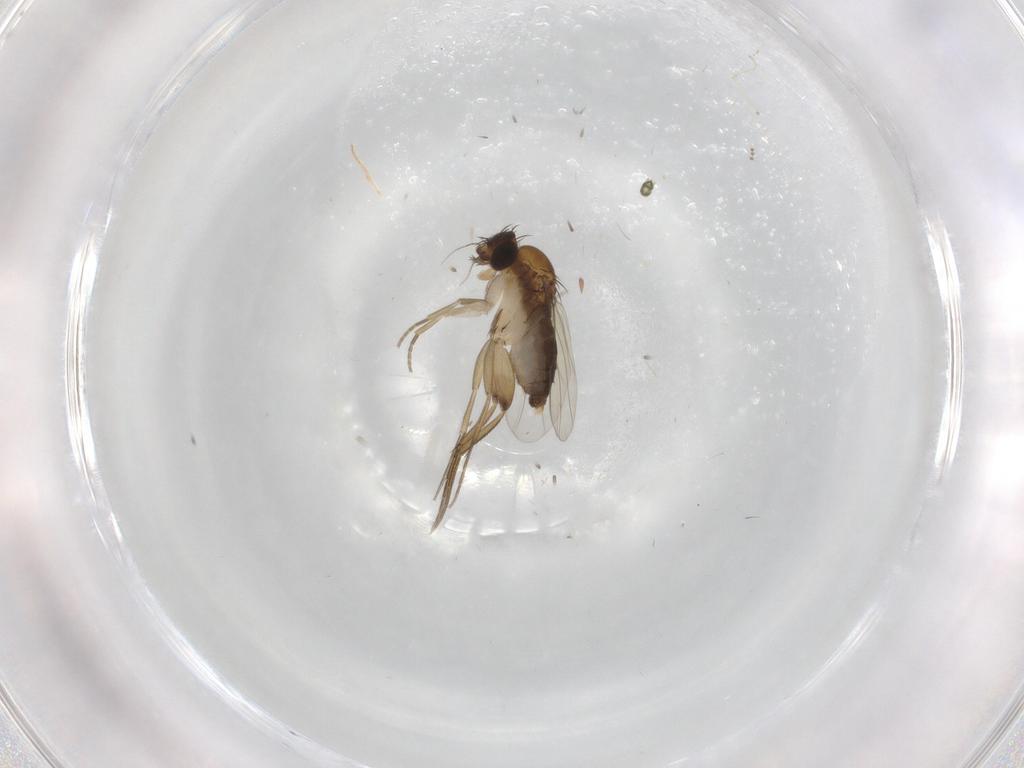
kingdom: Animalia
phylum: Arthropoda
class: Insecta
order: Diptera
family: Phoridae
